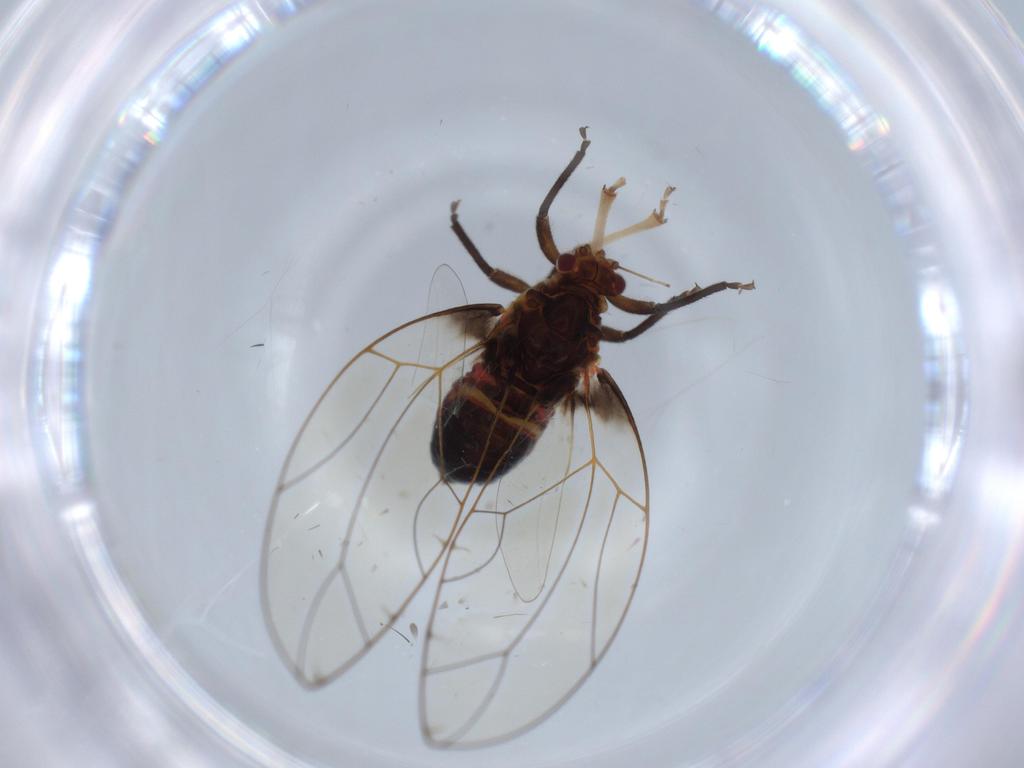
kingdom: Animalia
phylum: Arthropoda
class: Insecta
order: Hemiptera
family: Triozidae
